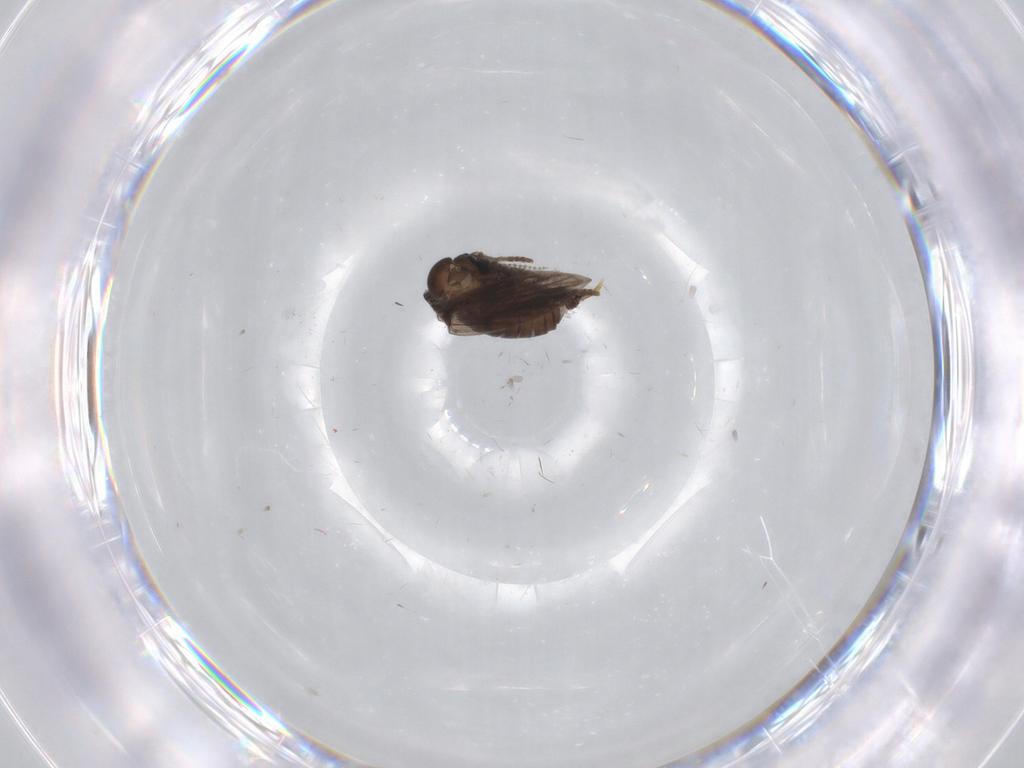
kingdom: Animalia
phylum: Arthropoda
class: Insecta
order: Diptera
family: Psychodidae
